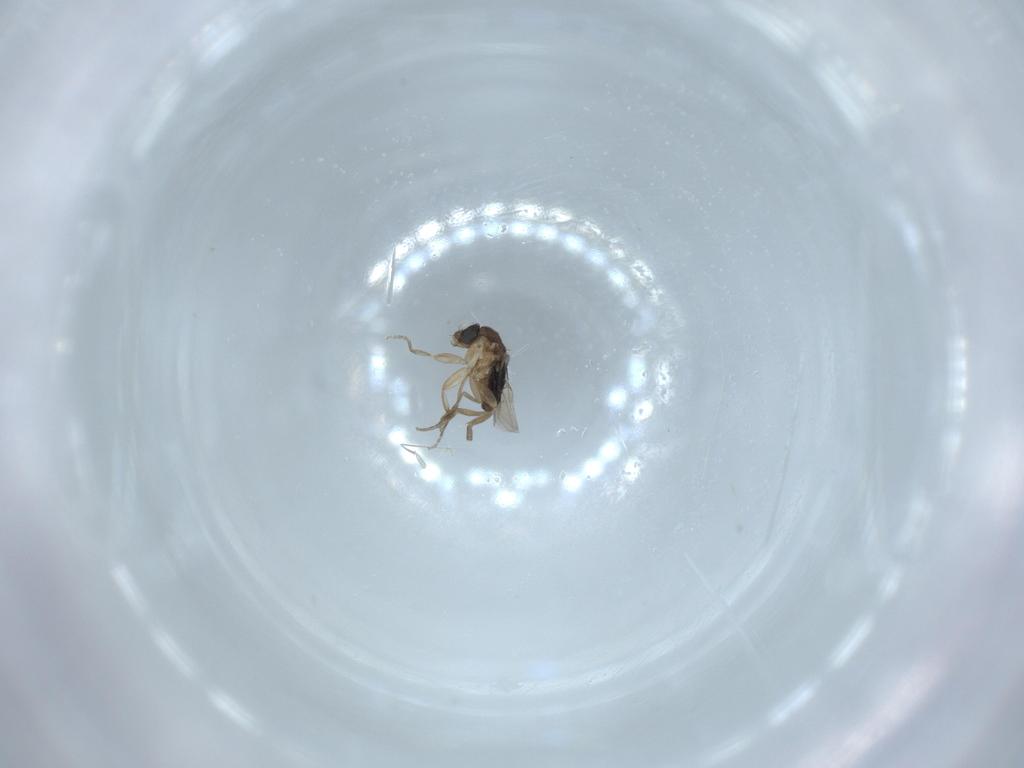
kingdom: Animalia
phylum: Arthropoda
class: Insecta
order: Diptera
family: Phoridae
